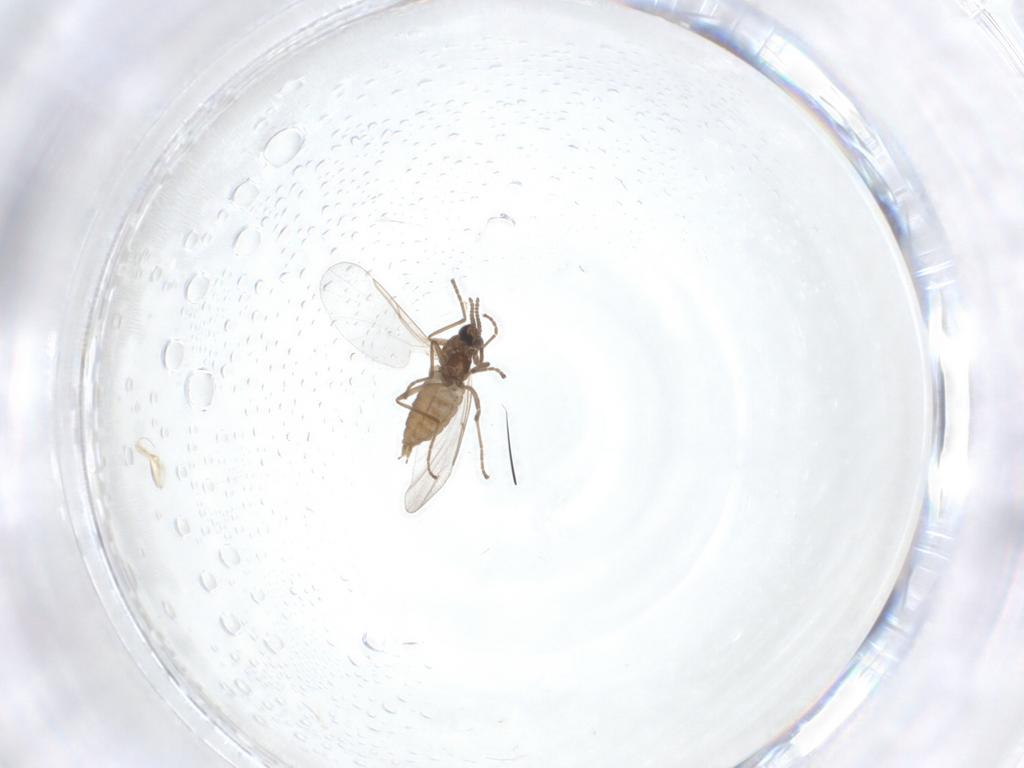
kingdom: Animalia
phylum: Arthropoda
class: Insecta
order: Diptera
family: Cecidomyiidae
